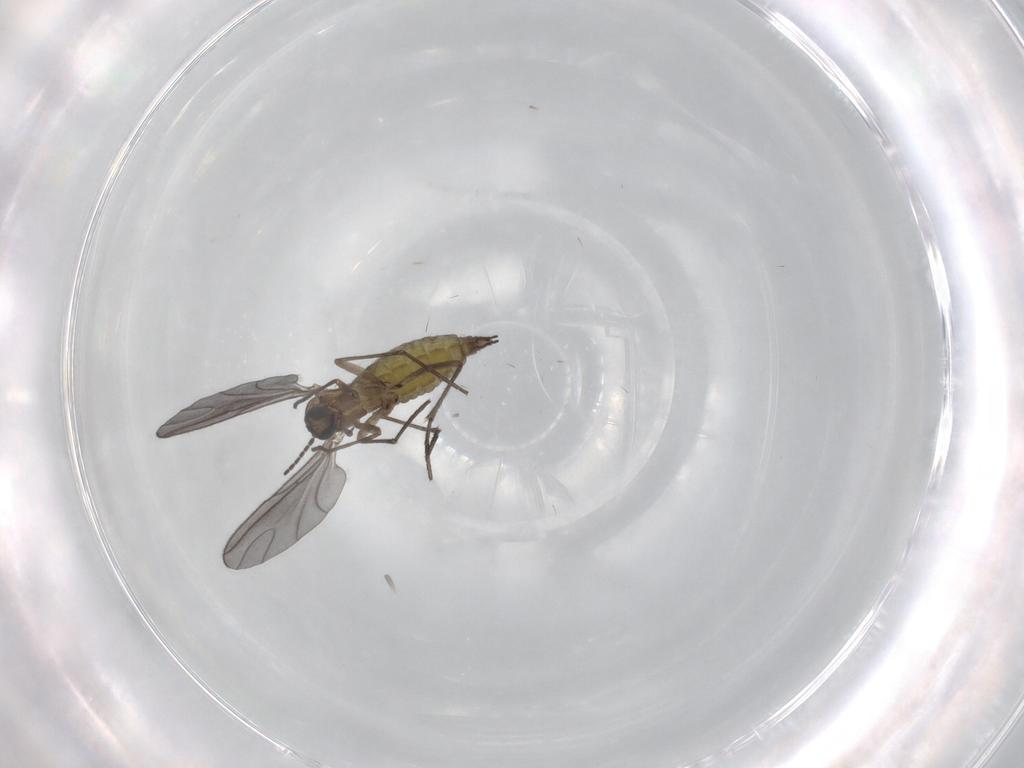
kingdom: Animalia
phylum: Arthropoda
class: Insecta
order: Diptera
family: Sciaridae
